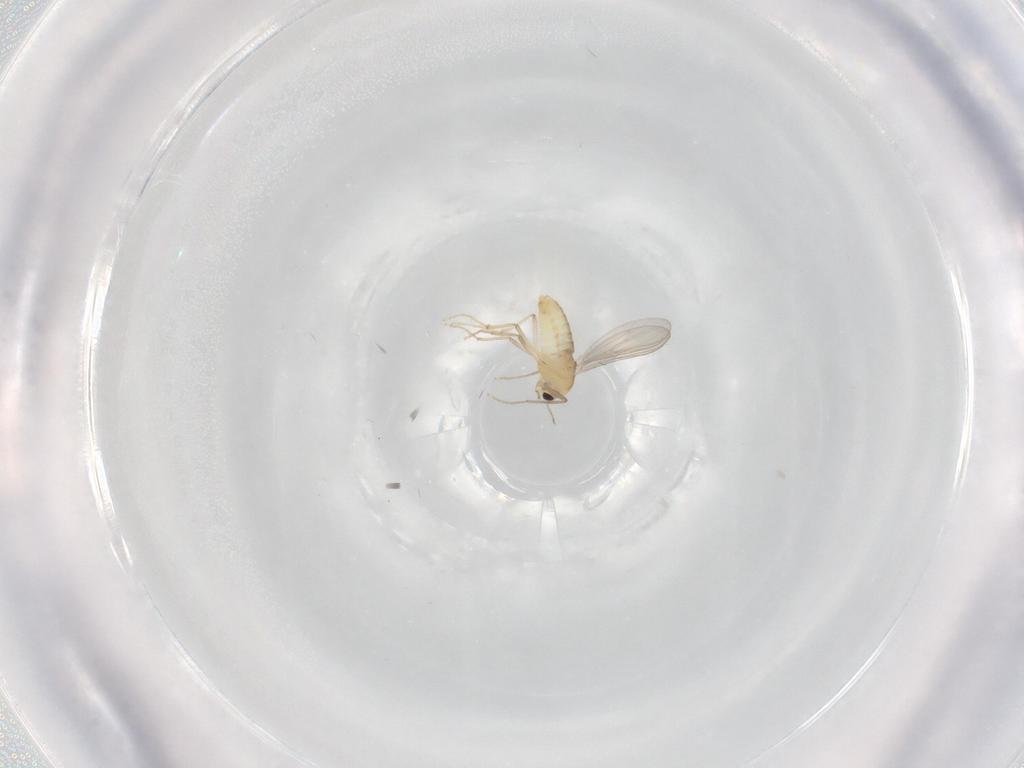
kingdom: Animalia
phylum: Arthropoda
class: Insecta
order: Diptera
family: Chironomidae
